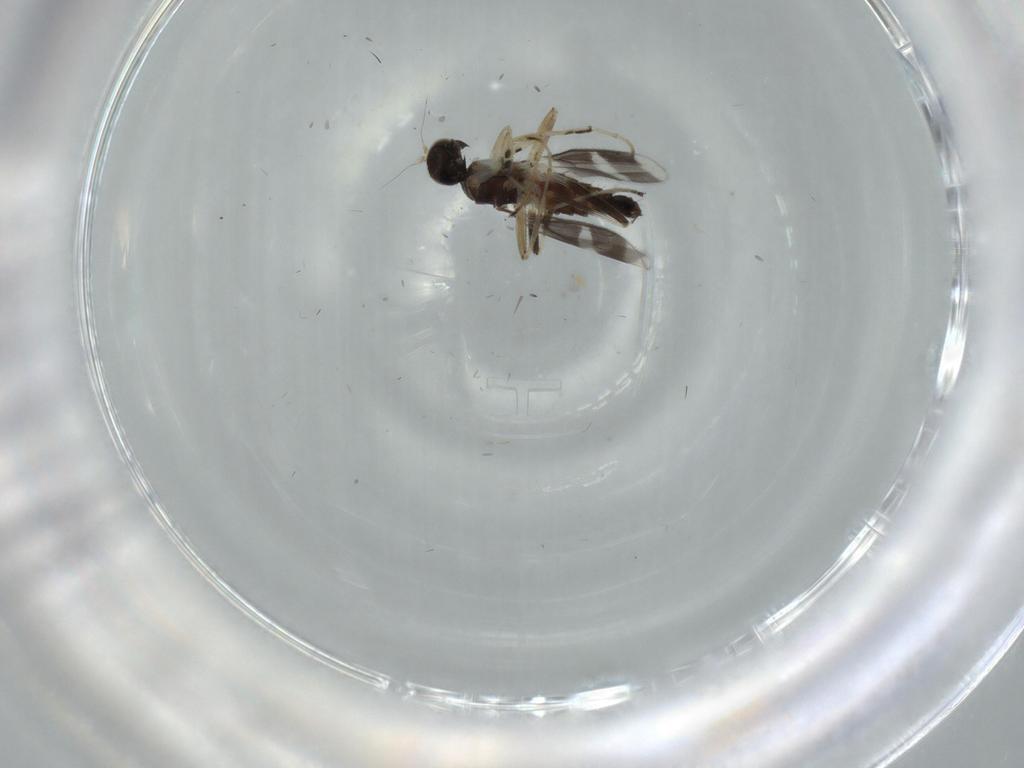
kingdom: Animalia
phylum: Arthropoda
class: Insecta
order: Diptera
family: Hybotidae
